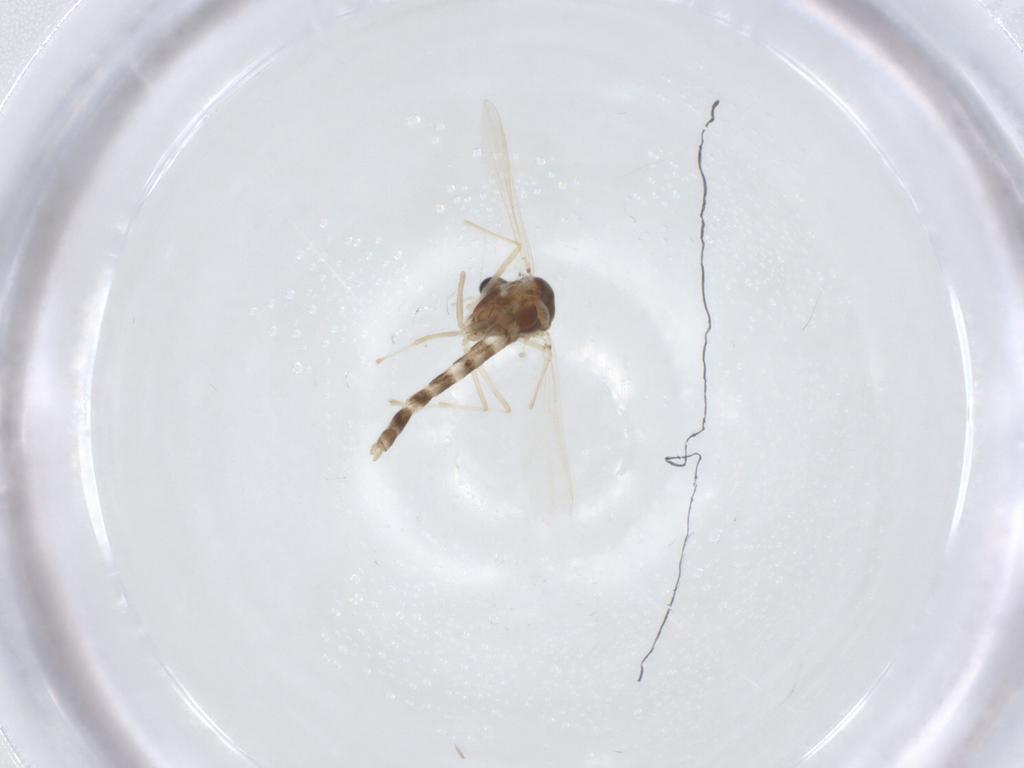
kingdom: Animalia
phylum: Arthropoda
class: Insecta
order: Diptera
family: Chironomidae
